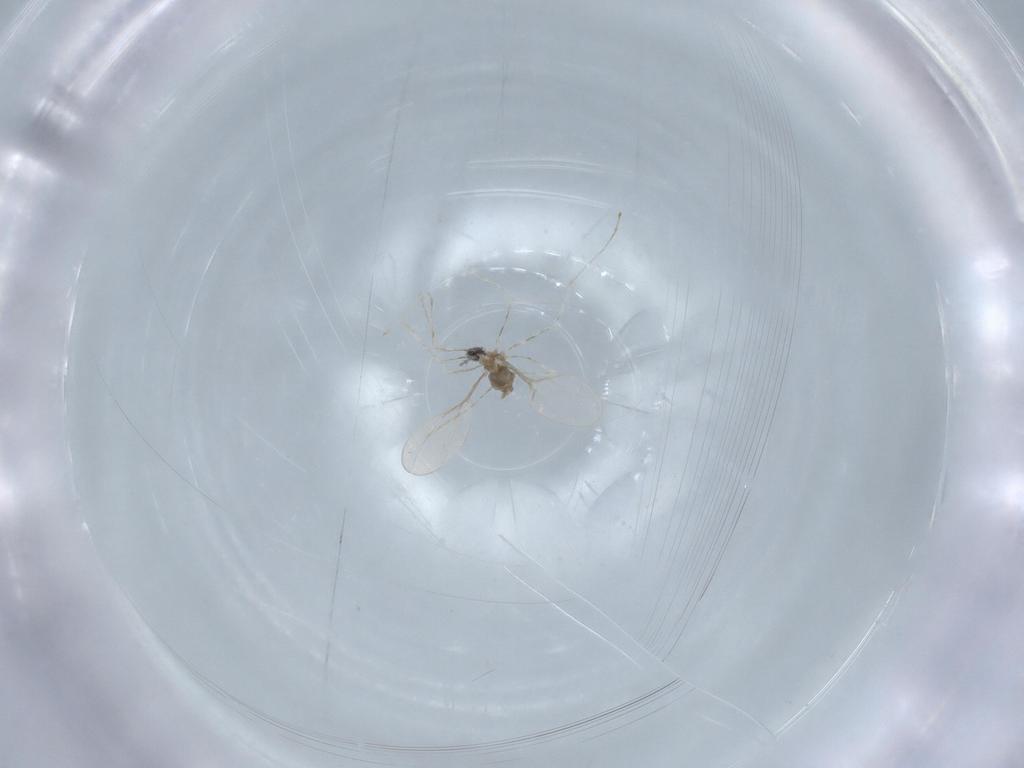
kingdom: Animalia
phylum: Arthropoda
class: Insecta
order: Diptera
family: Cecidomyiidae
